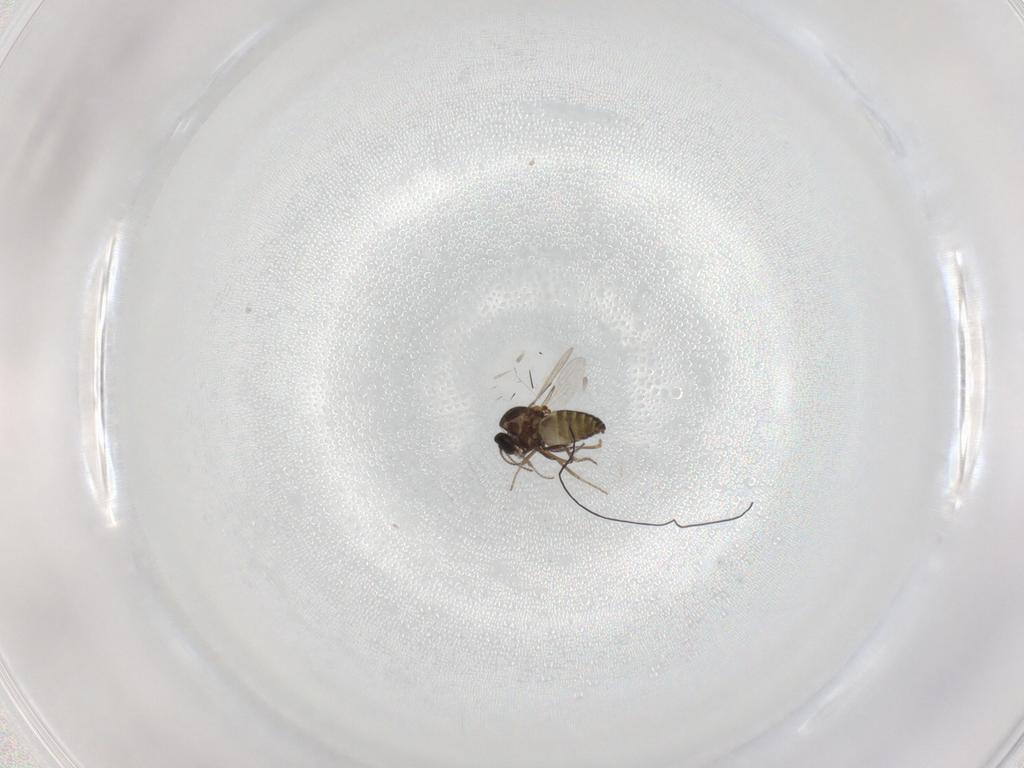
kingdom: Animalia
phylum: Arthropoda
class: Insecta
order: Diptera
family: Ceratopogonidae
